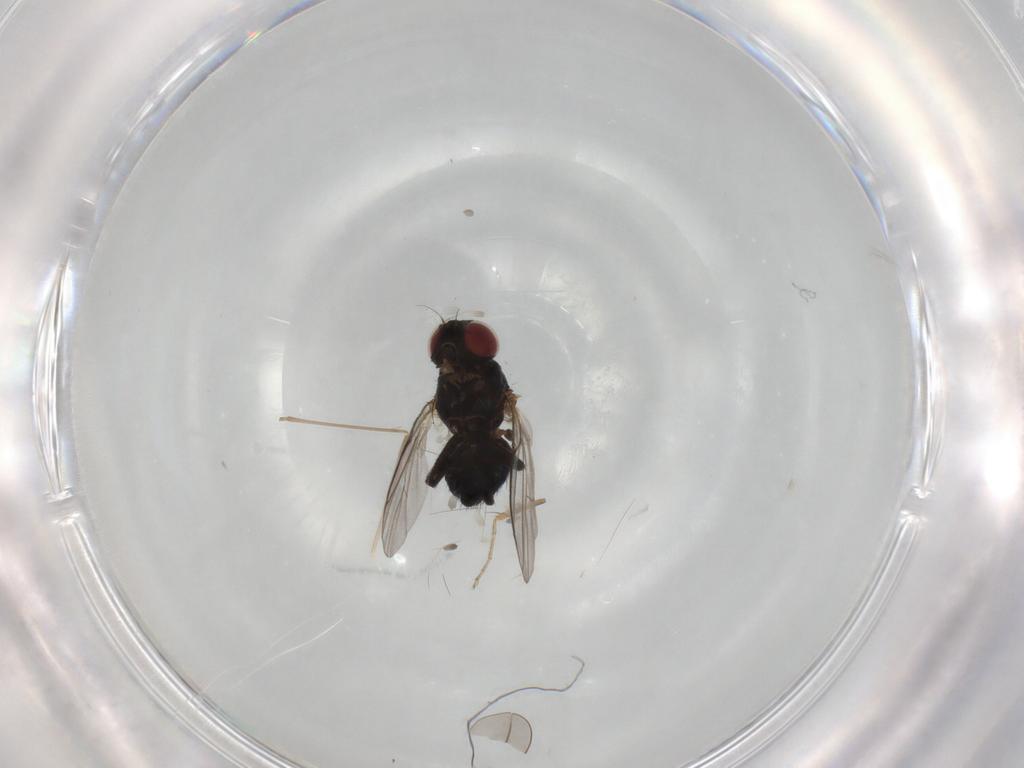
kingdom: Animalia
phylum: Arthropoda
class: Insecta
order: Diptera
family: Ceratopogonidae
